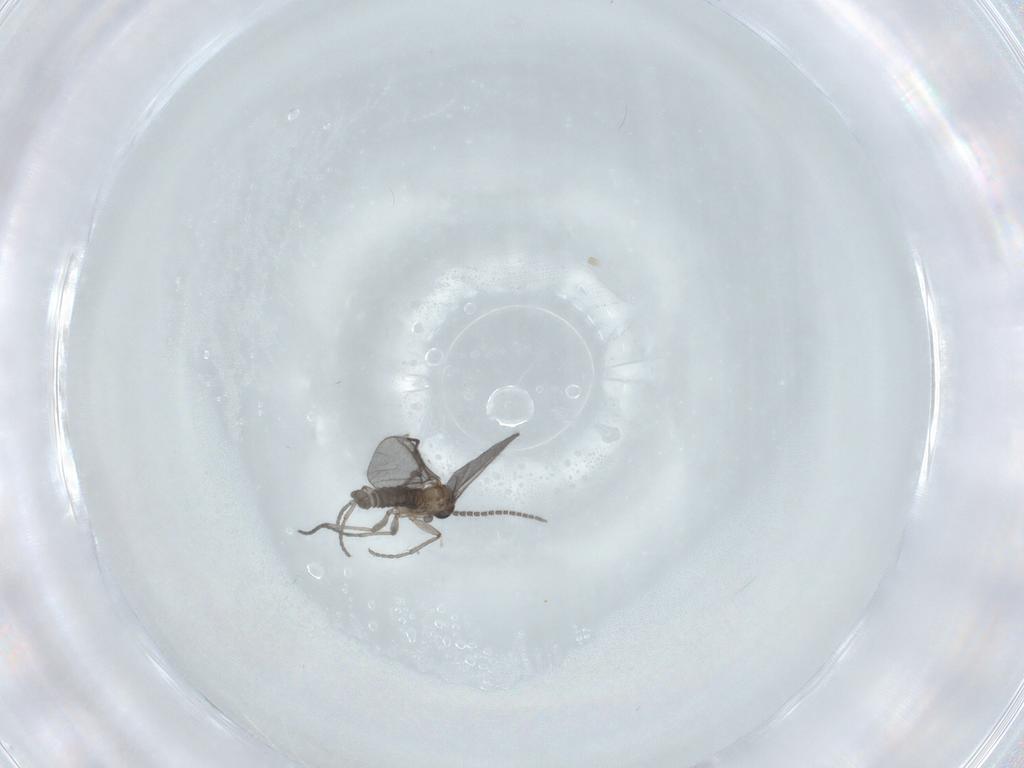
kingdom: Animalia
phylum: Arthropoda
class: Insecta
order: Diptera
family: Sciaridae
